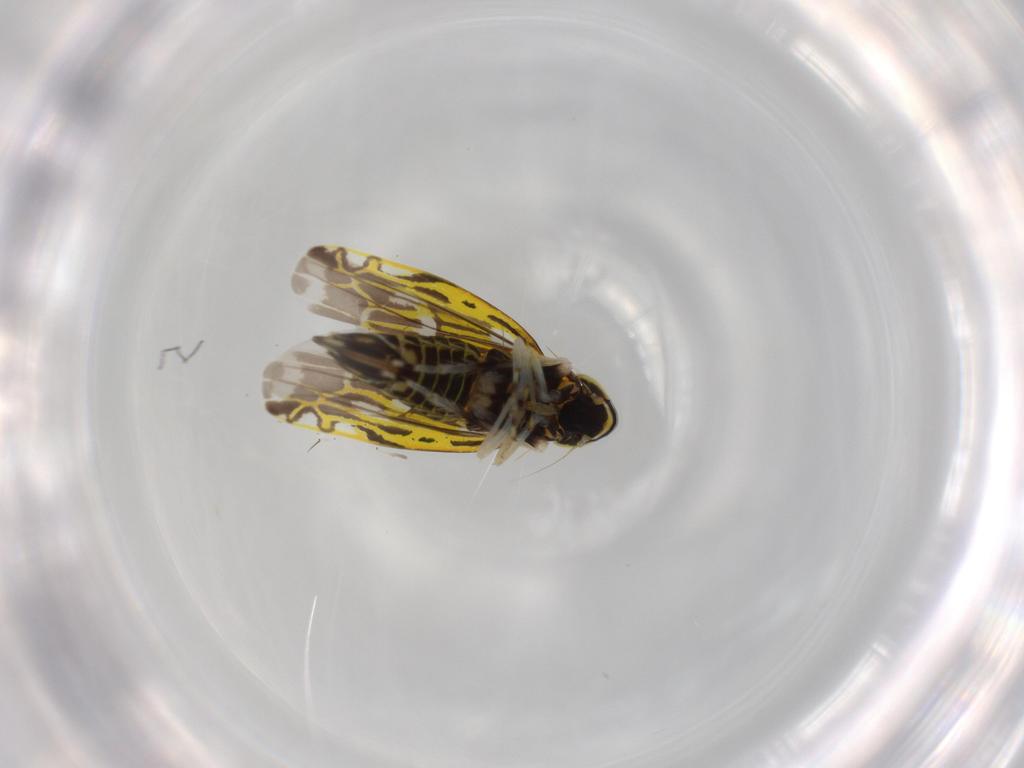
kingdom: Animalia
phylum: Arthropoda
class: Insecta
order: Hemiptera
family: Cicadellidae
